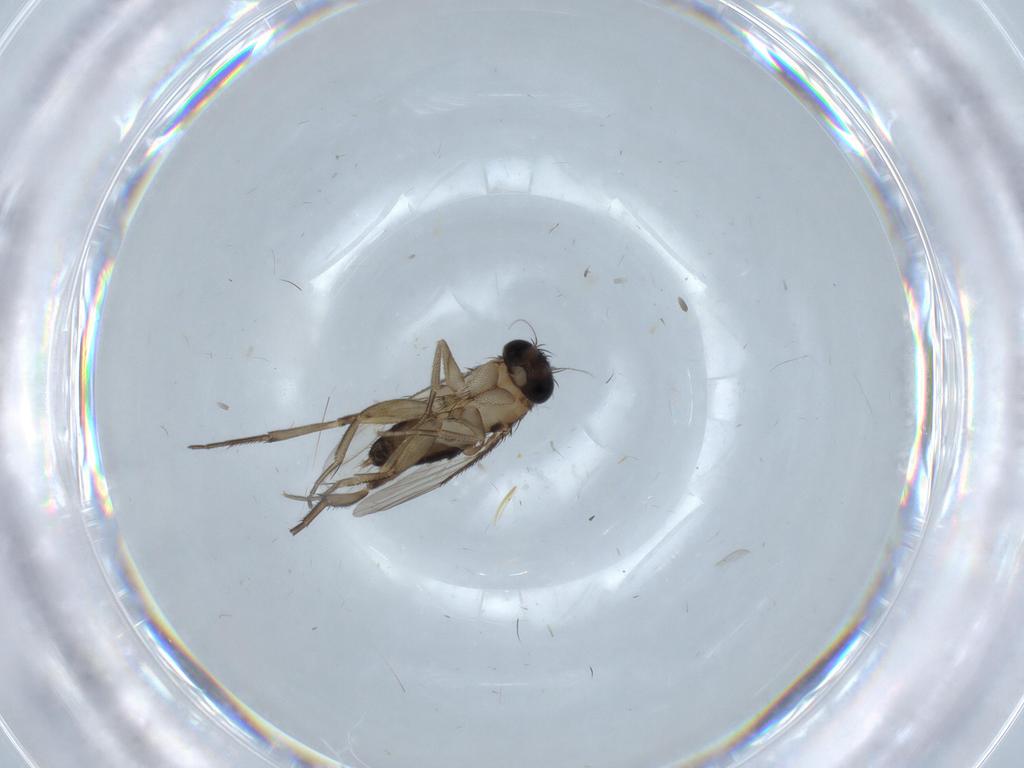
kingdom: Animalia
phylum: Arthropoda
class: Insecta
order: Diptera
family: Phoridae
